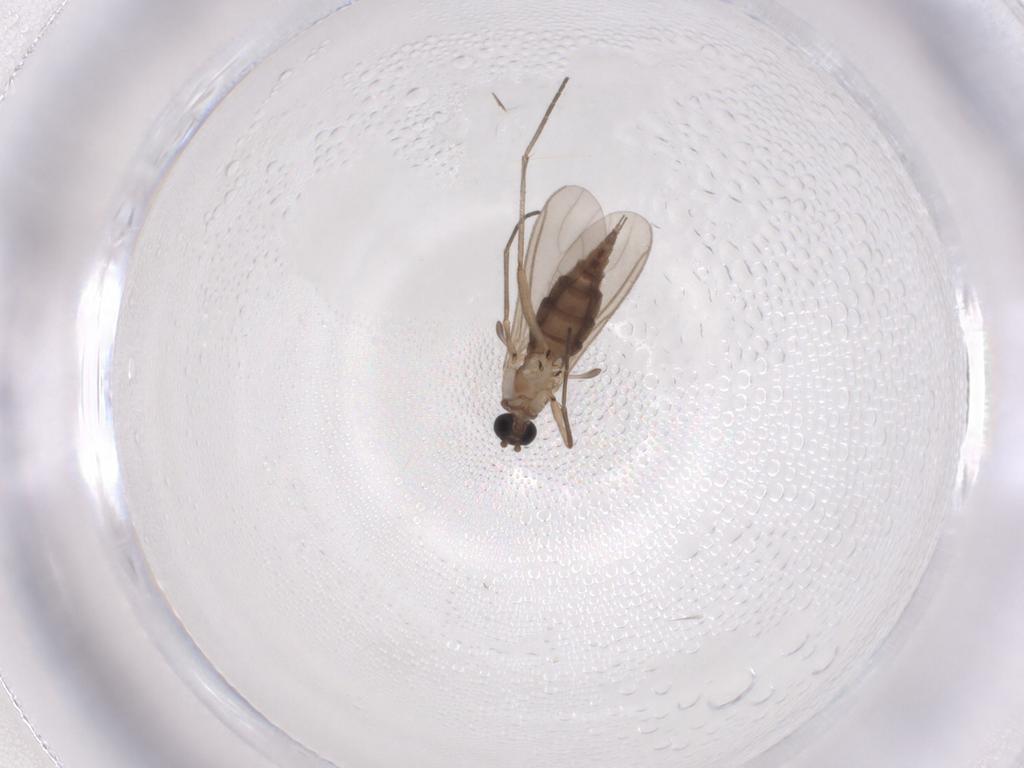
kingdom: Animalia
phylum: Arthropoda
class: Insecta
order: Diptera
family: Sciaridae
